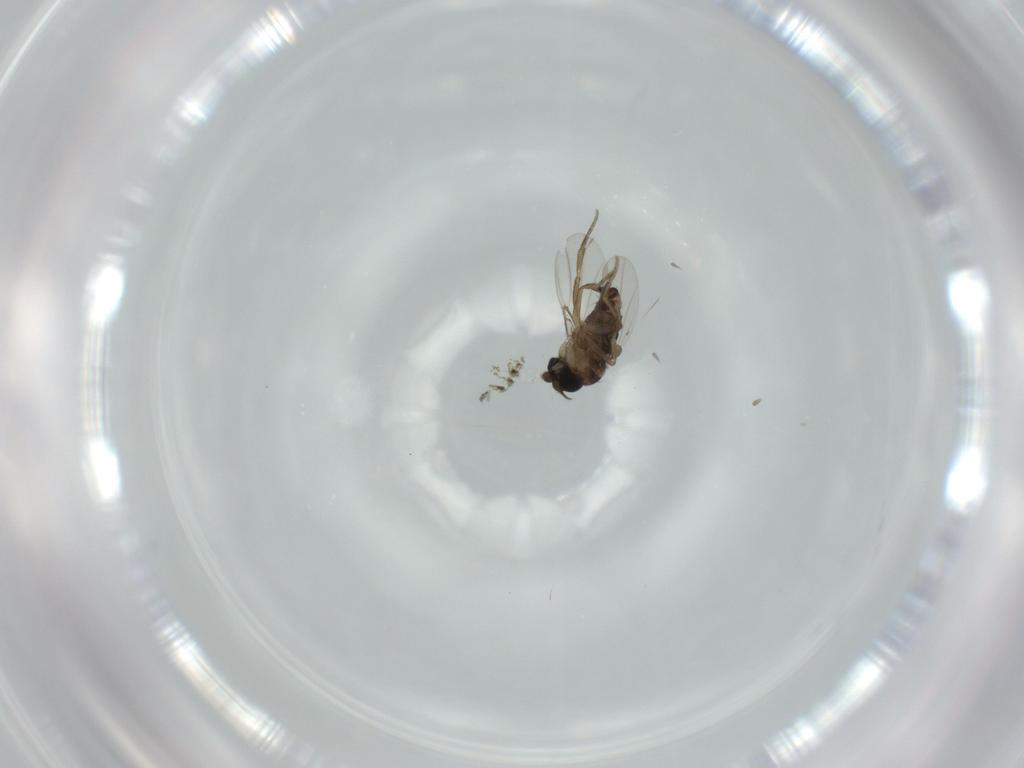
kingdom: Animalia
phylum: Arthropoda
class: Insecta
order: Diptera
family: Phoridae
